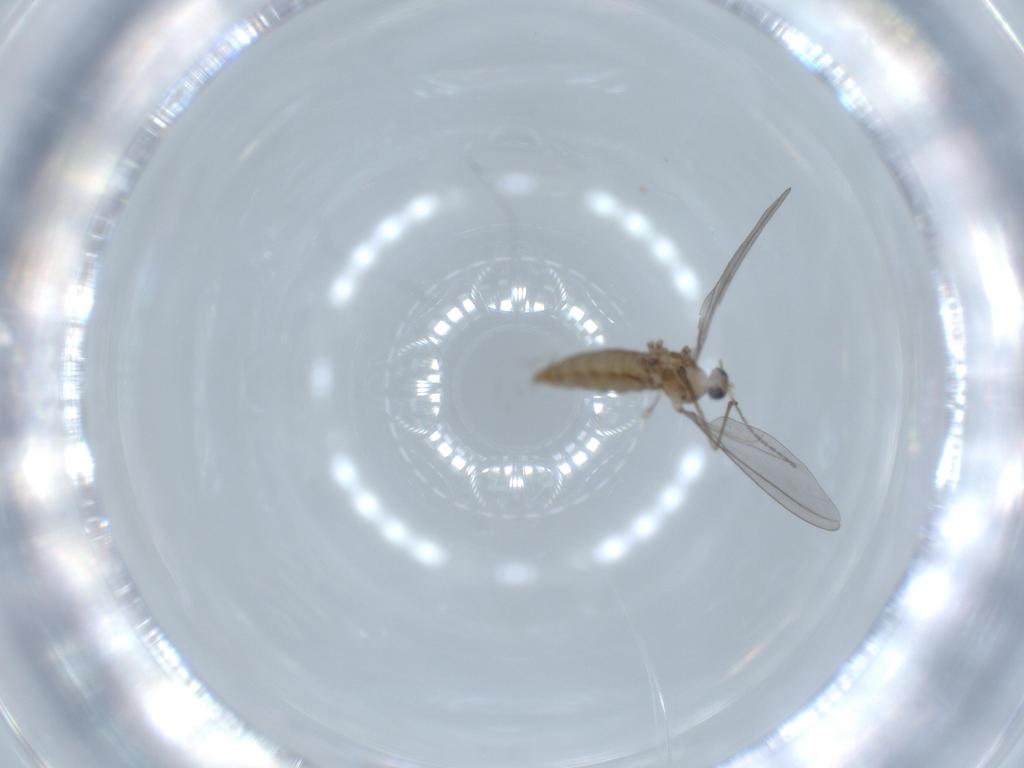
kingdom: Animalia
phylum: Arthropoda
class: Insecta
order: Diptera
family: Cecidomyiidae
